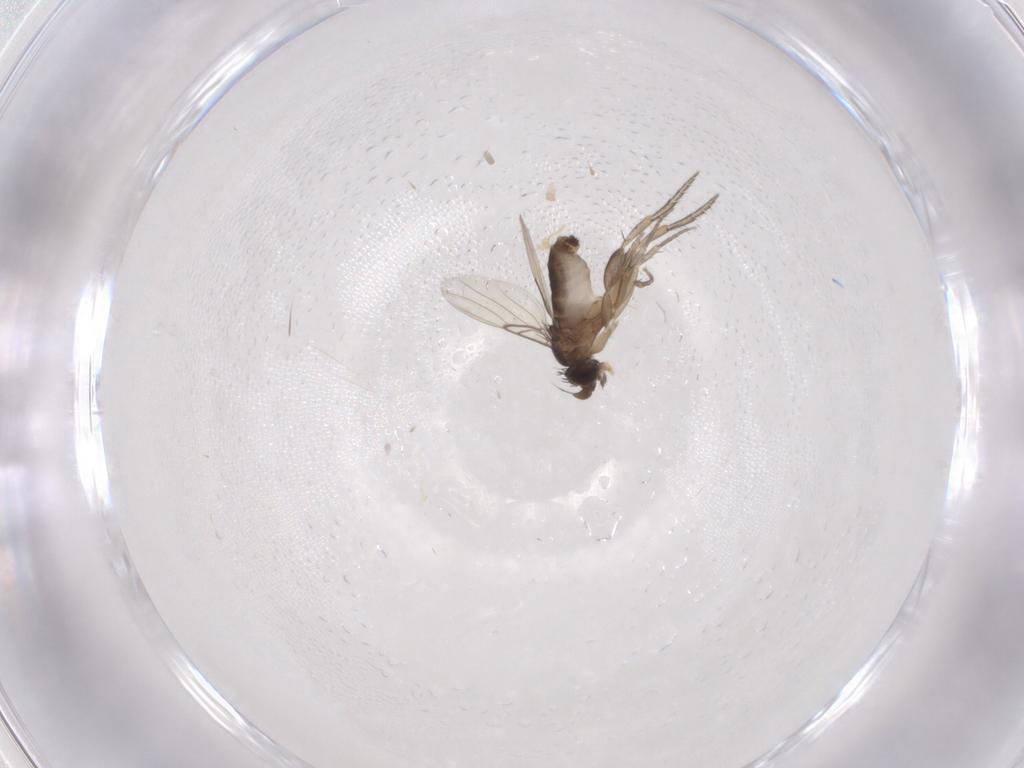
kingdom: Animalia
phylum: Arthropoda
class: Insecta
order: Diptera
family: Phoridae
